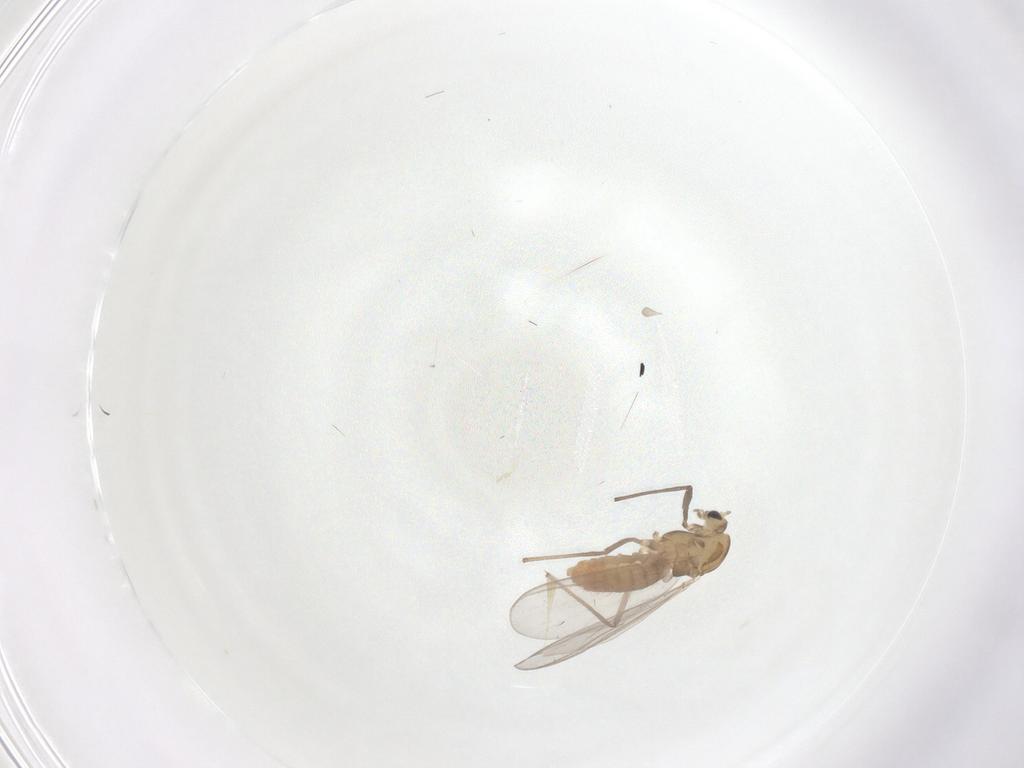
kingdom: Animalia
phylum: Arthropoda
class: Insecta
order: Diptera
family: Chironomidae
